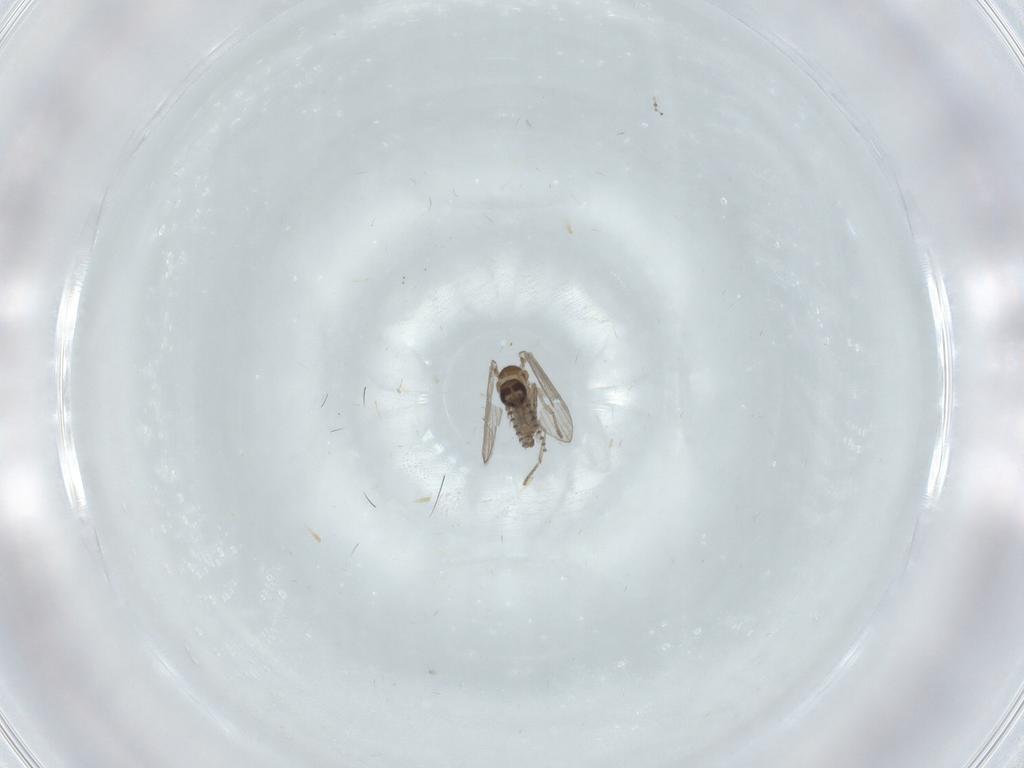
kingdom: Animalia
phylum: Arthropoda
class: Insecta
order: Diptera
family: Psychodidae
